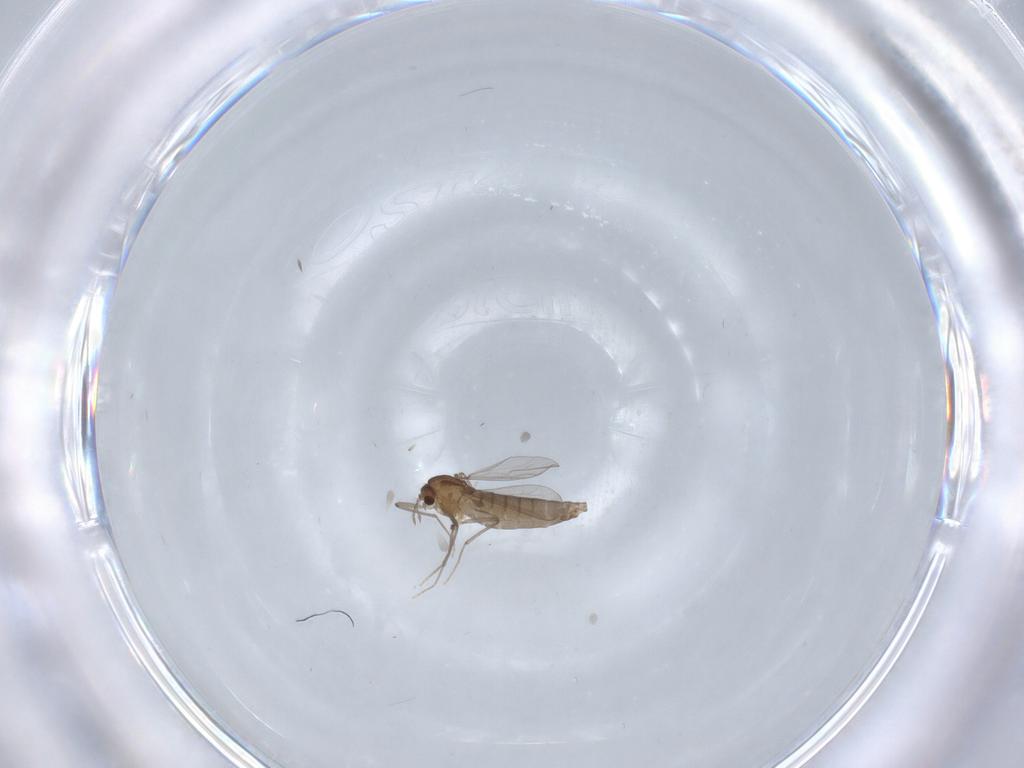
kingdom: Animalia
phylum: Arthropoda
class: Insecta
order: Diptera
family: Chironomidae
